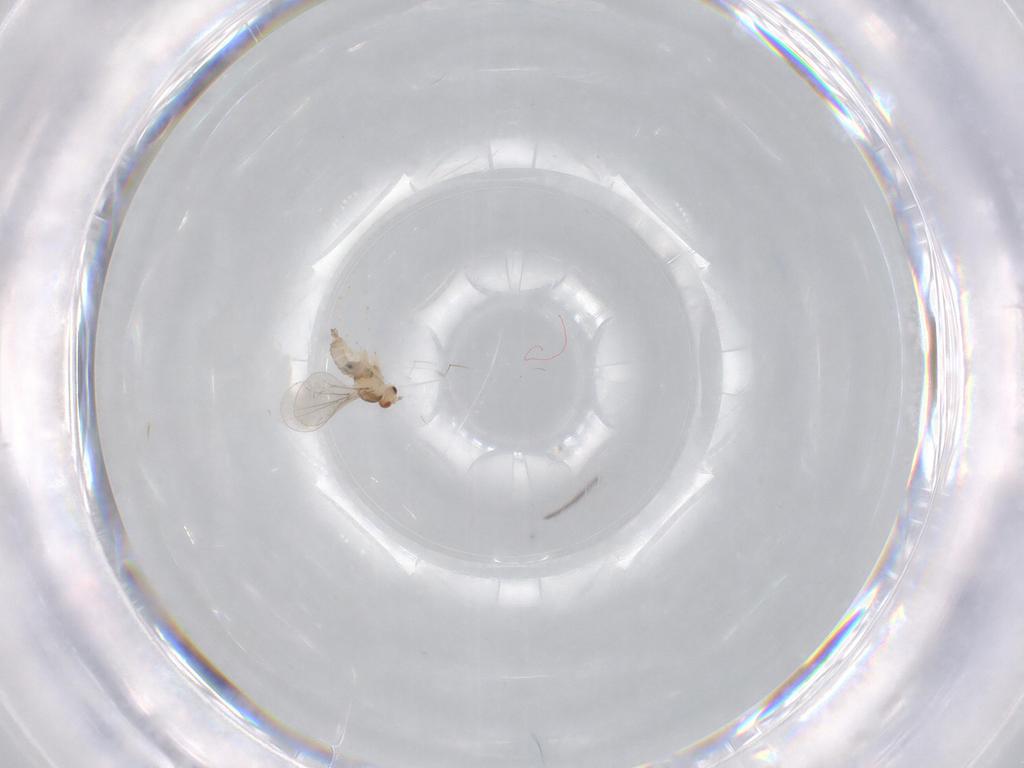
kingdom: Animalia
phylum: Arthropoda
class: Insecta
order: Diptera
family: Cecidomyiidae
